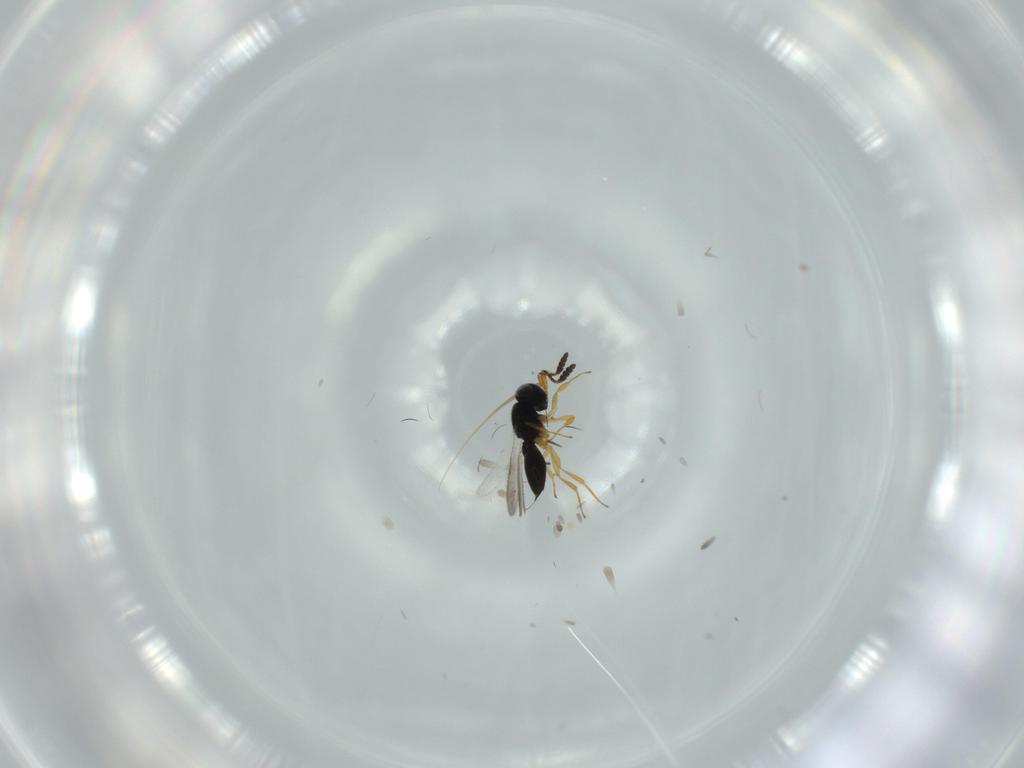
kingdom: Animalia
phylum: Arthropoda
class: Insecta
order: Hymenoptera
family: Scelionidae
